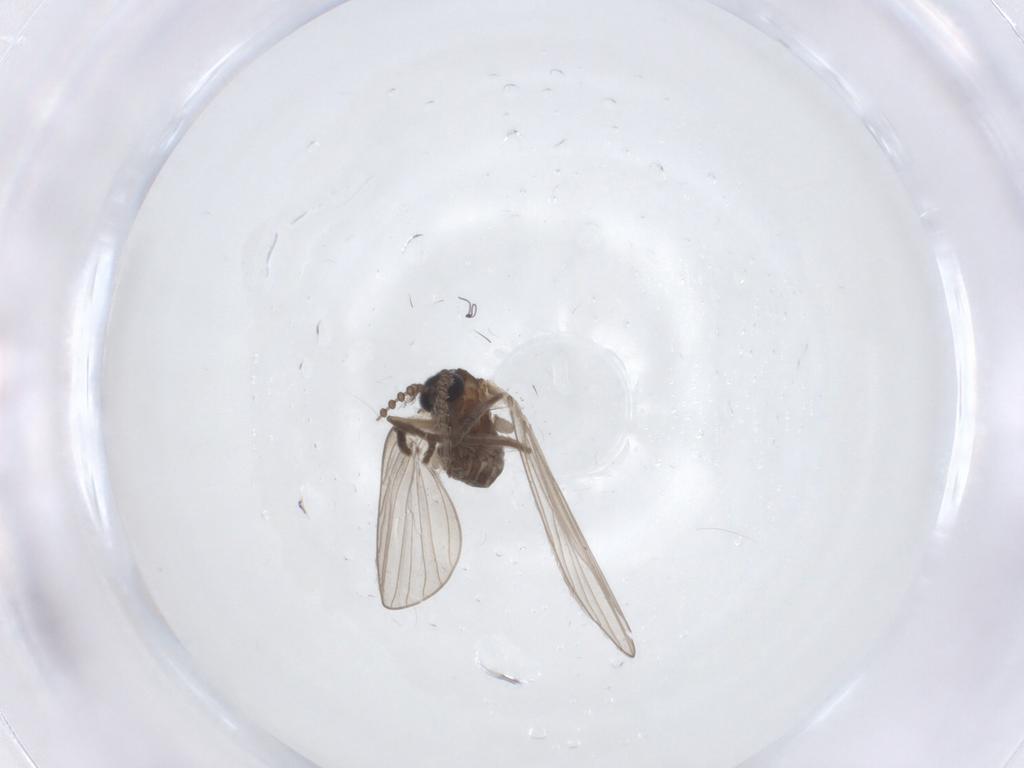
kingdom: Animalia
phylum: Arthropoda
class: Insecta
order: Diptera
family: Psychodidae
